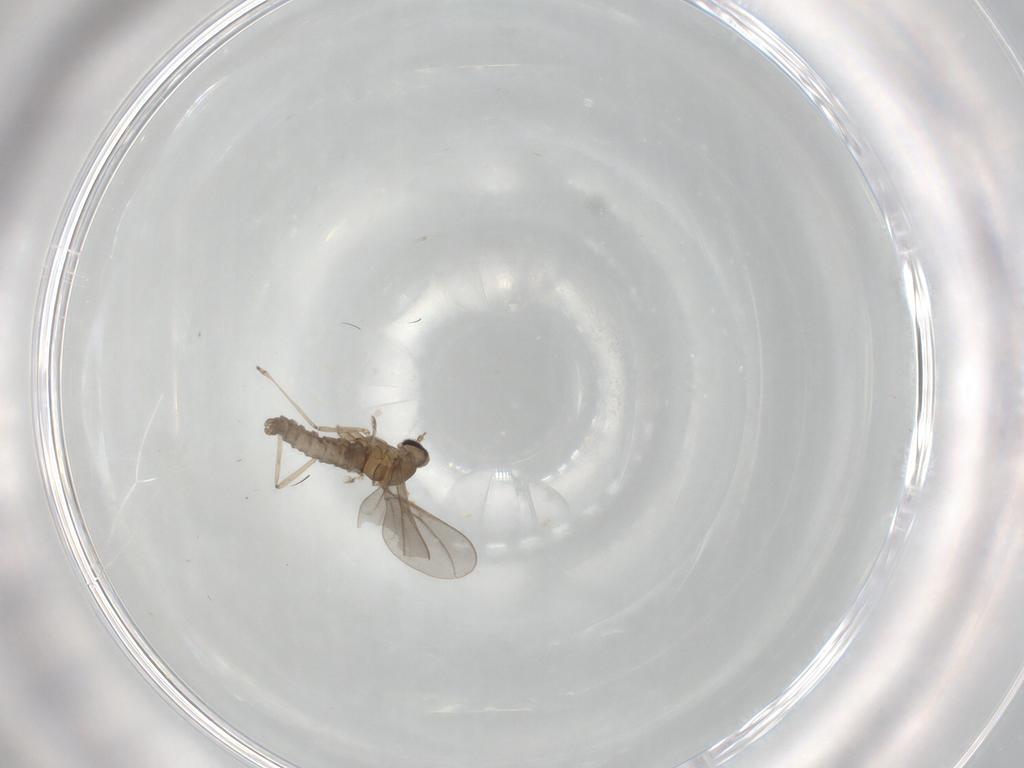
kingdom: Animalia
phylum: Arthropoda
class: Insecta
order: Diptera
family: Cecidomyiidae
